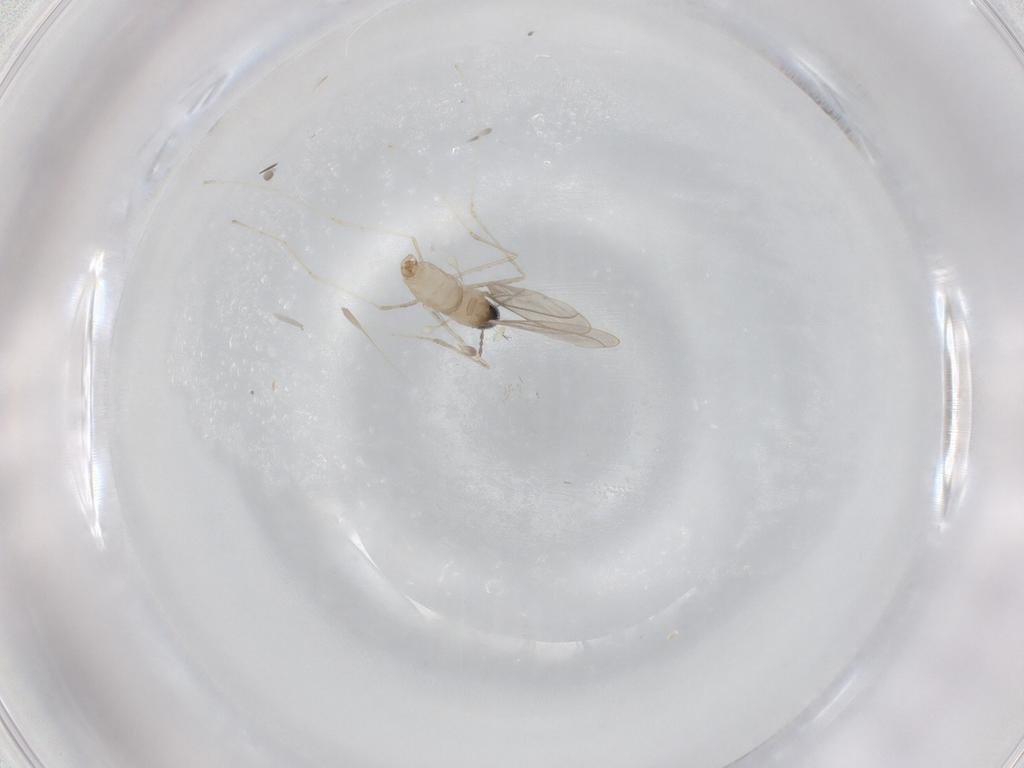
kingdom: Animalia
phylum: Arthropoda
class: Insecta
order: Diptera
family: Cecidomyiidae
